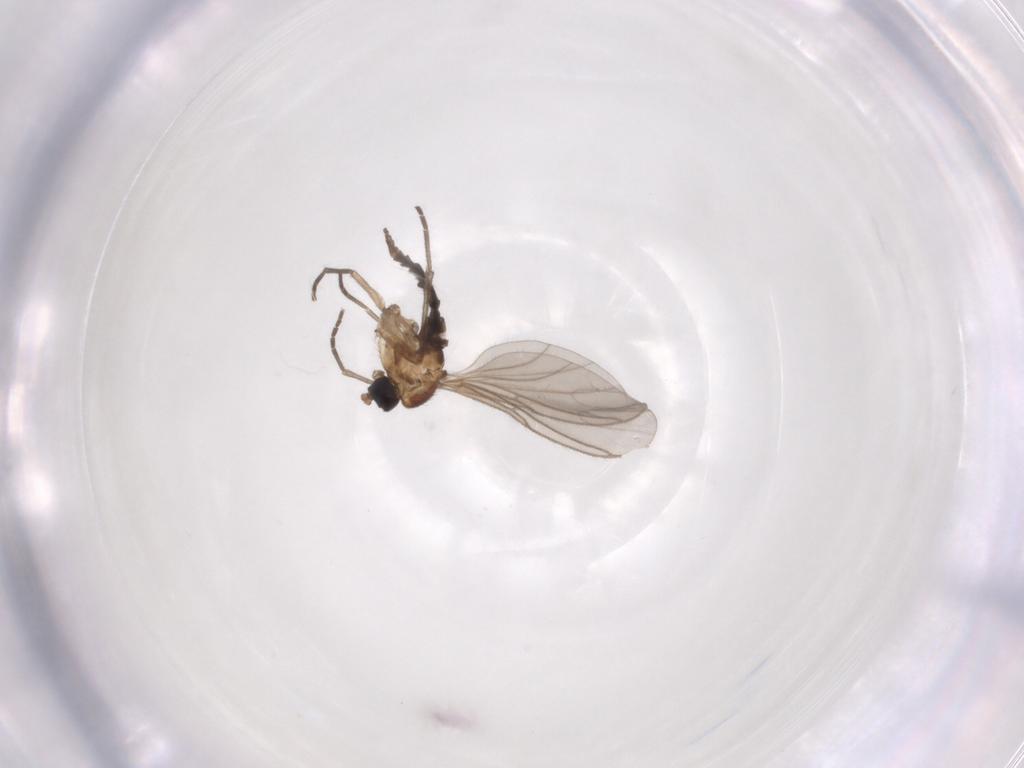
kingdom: Animalia
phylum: Arthropoda
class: Insecta
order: Diptera
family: Sciaridae
